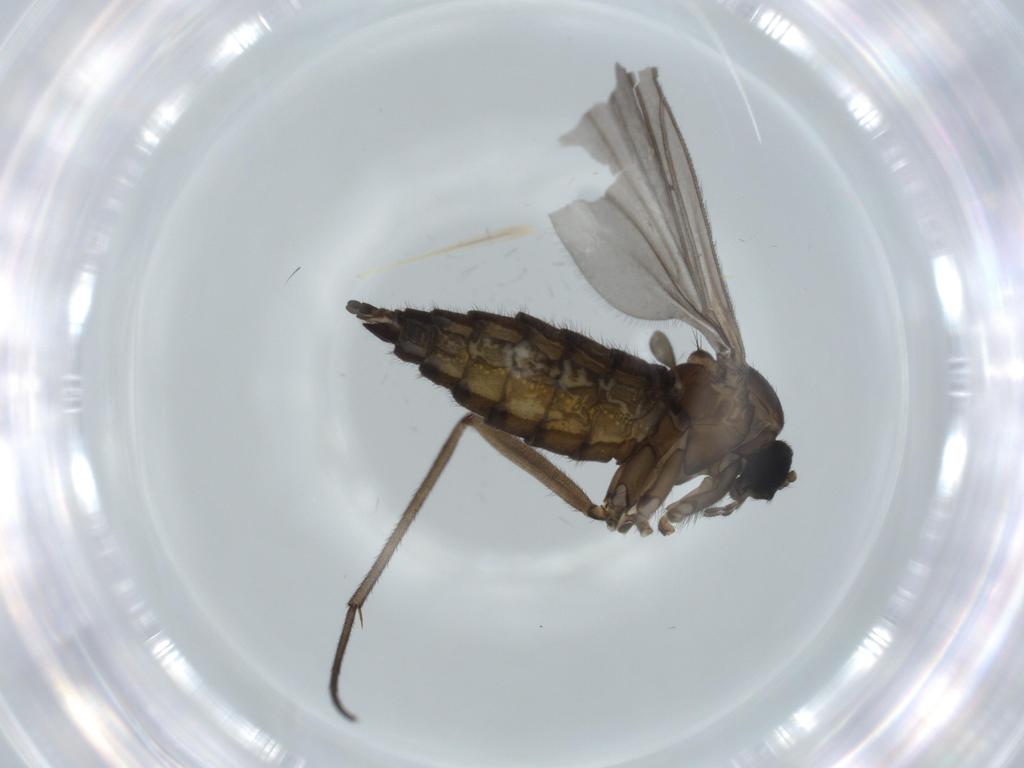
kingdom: Animalia
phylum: Arthropoda
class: Insecta
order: Diptera
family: Sciaridae
